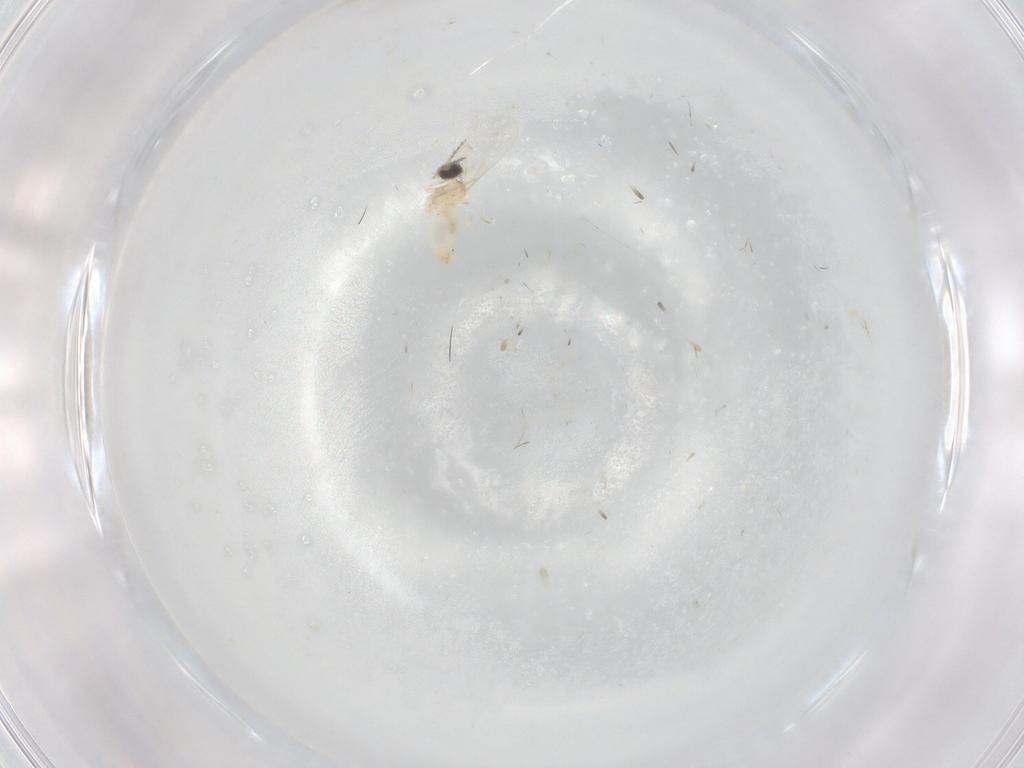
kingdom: Animalia
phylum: Arthropoda
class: Insecta
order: Diptera
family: Cecidomyiidae
